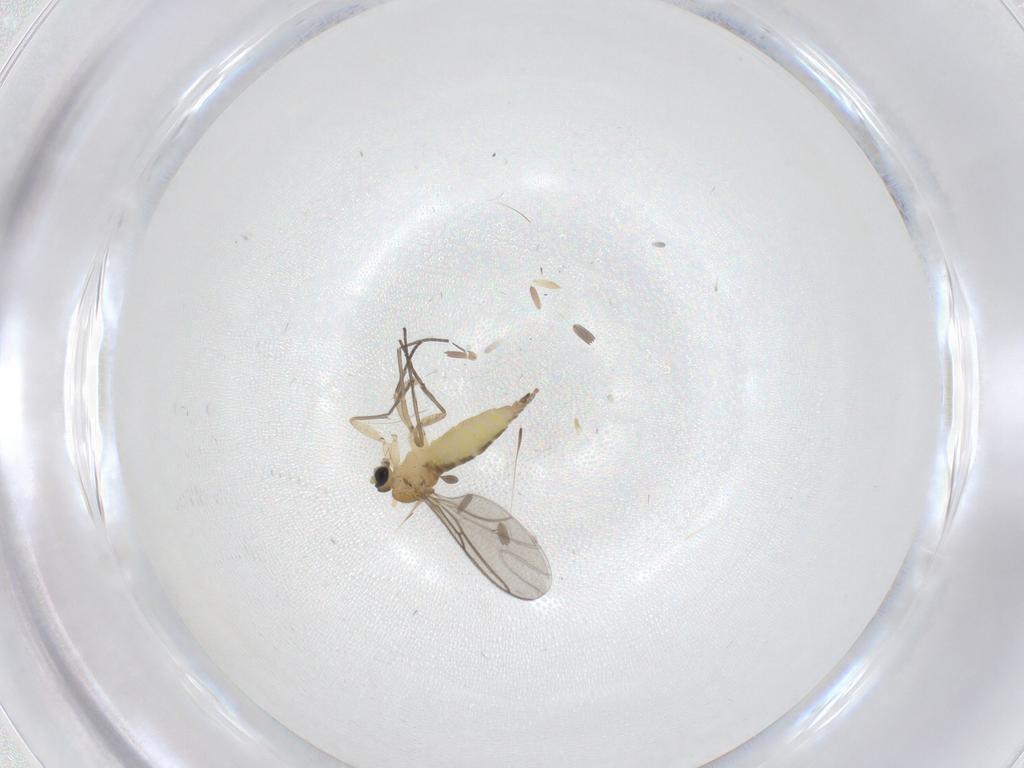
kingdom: Animalia
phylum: Arthropoda
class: Insecta
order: Diptera
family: Sciaridae
